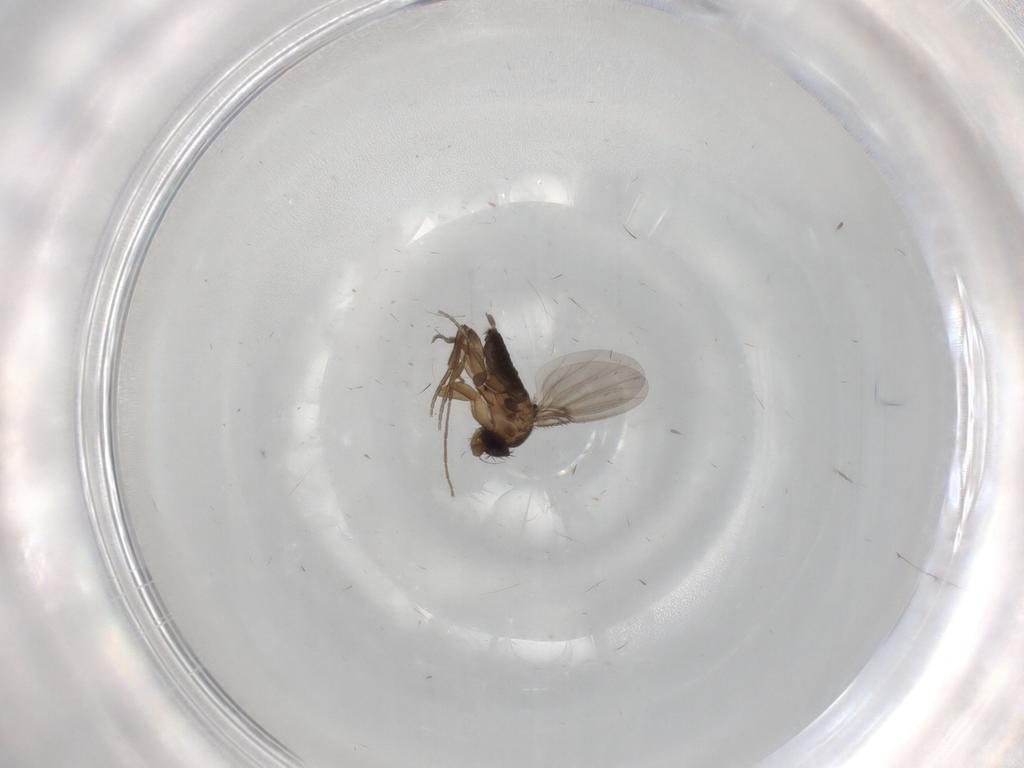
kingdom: Animalia
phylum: Arthropoda
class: Insecta
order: Diptera
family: Phoridae
